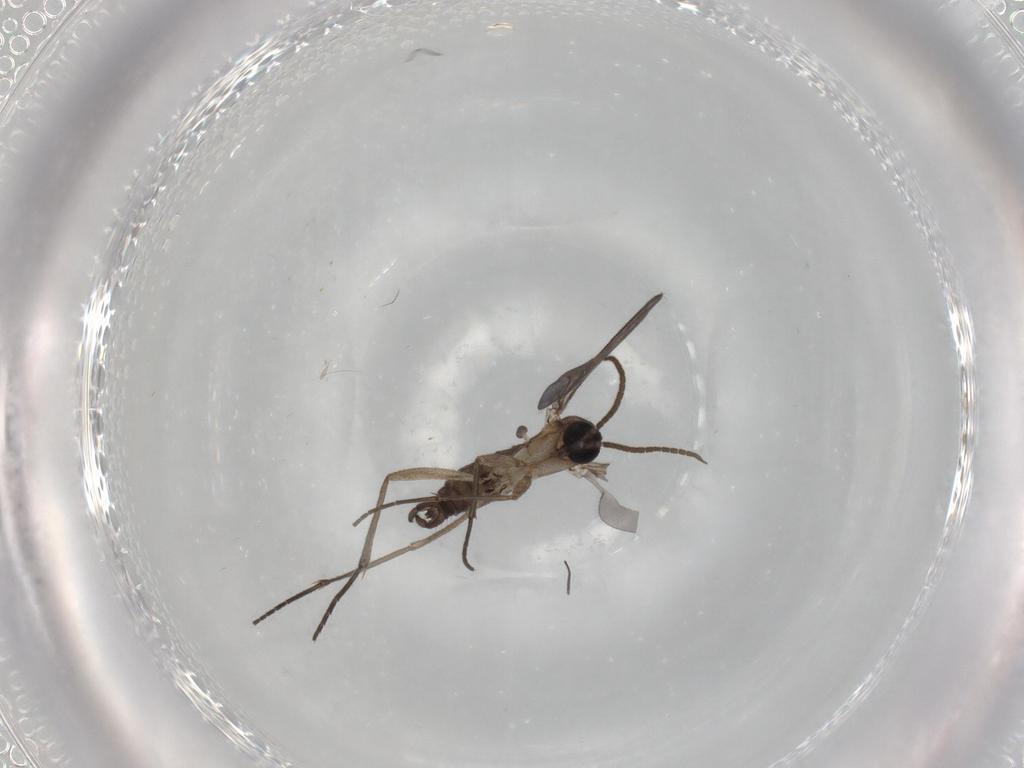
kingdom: Animalia
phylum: Arthropoda
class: Insecta
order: Diptera
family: Sciaridae
